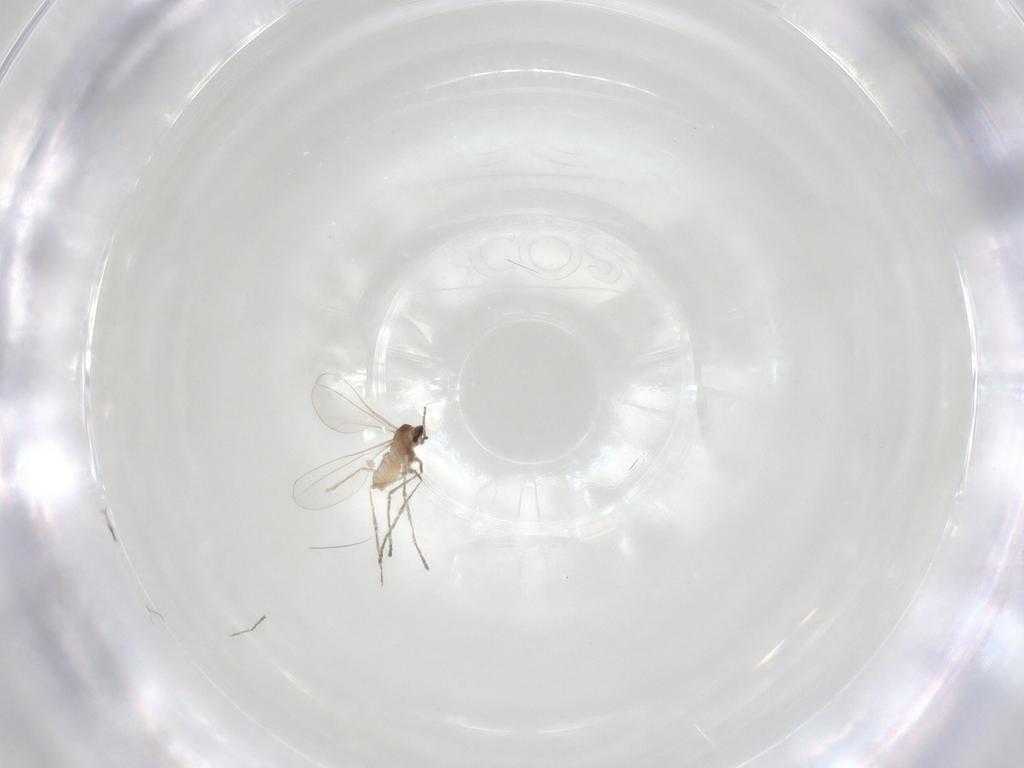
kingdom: Animalia
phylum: Arthropoda
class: Insecta
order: Diptera
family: Cecidomyiidae
